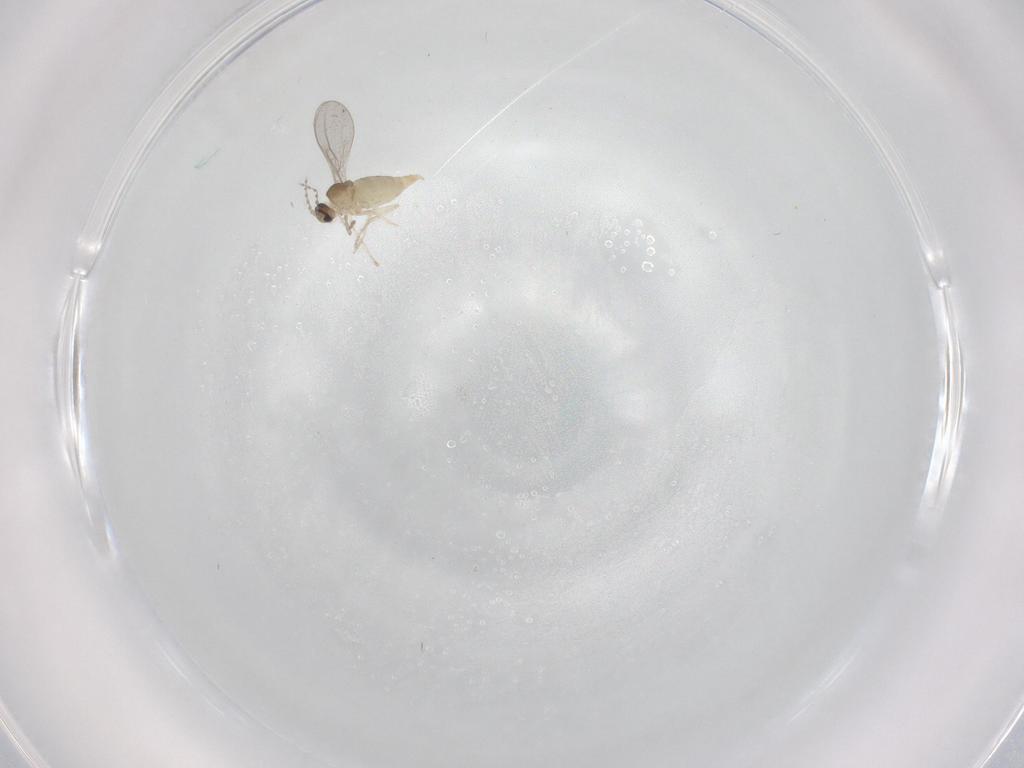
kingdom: Animalia
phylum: Arthropoda
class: Insecta
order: Diptera
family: Cecidomyiidae
